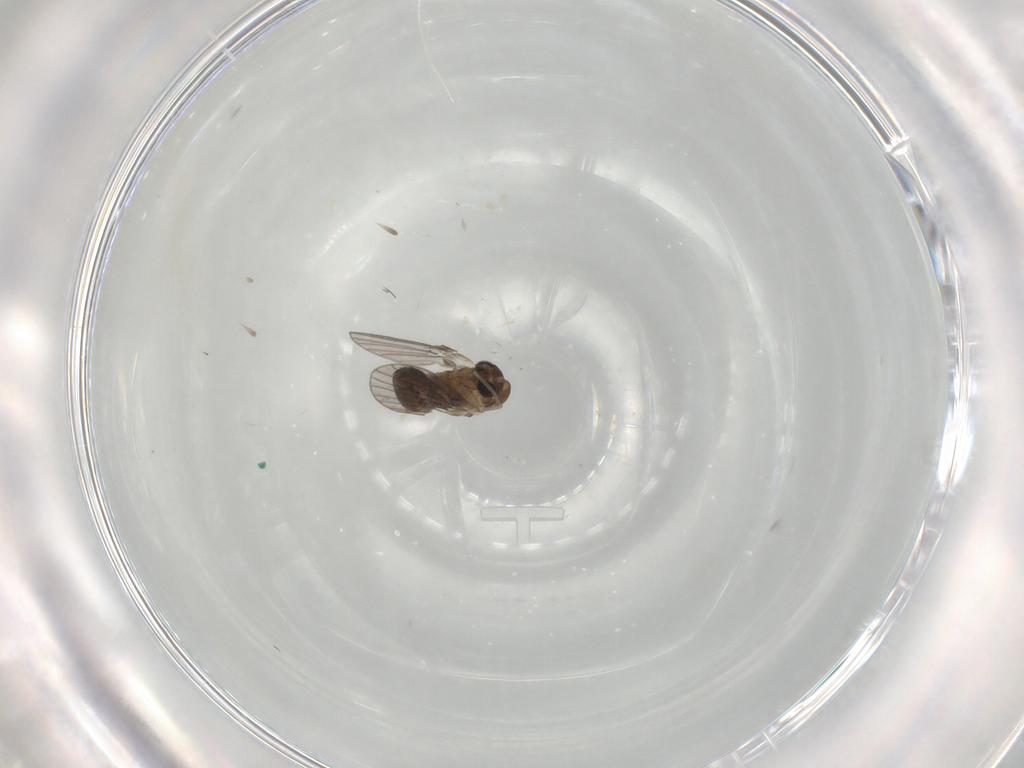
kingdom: Animalia
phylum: Arthropoda
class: Insecta
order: Diptera
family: Psychodidae
